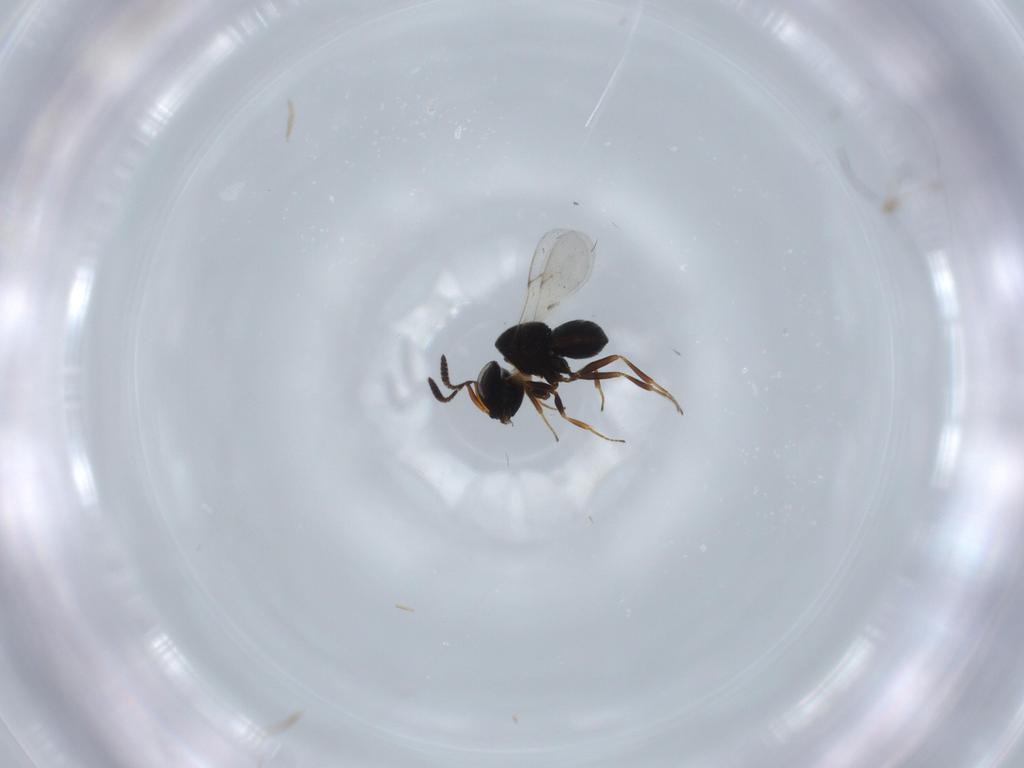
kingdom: Animalia
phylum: Arthropoda
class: Insecta
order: Hymenoptera
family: Scelionidae
